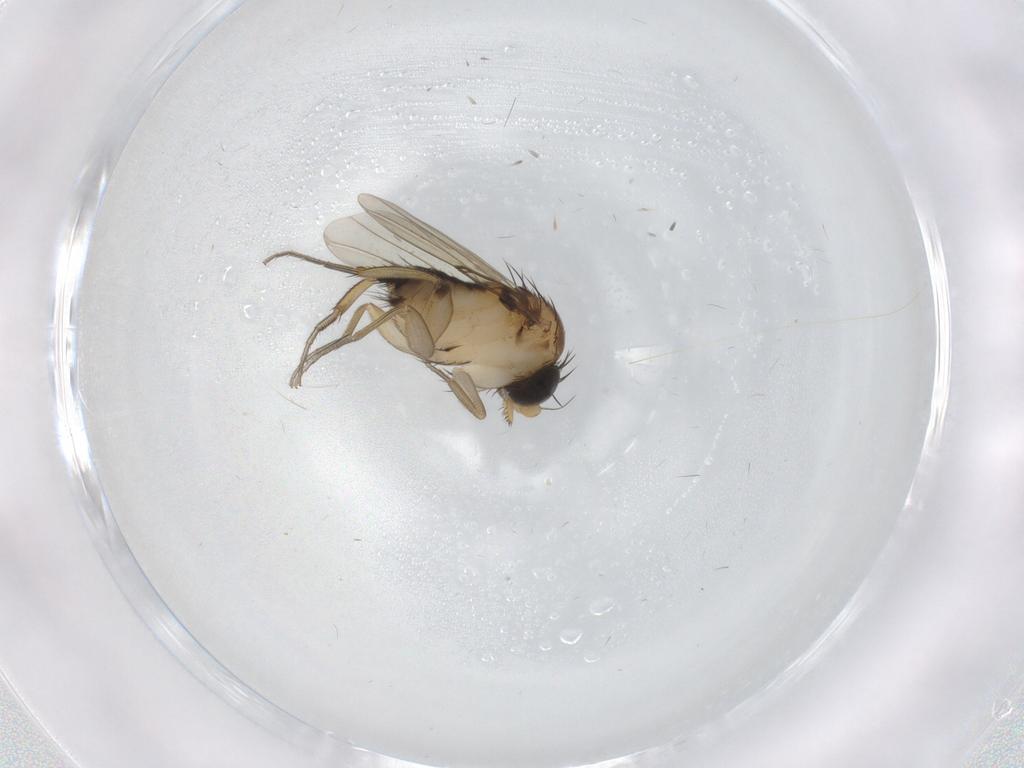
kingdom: Animalia
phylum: Arthropoda
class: Insecta
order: Diptera
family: Phoridae
